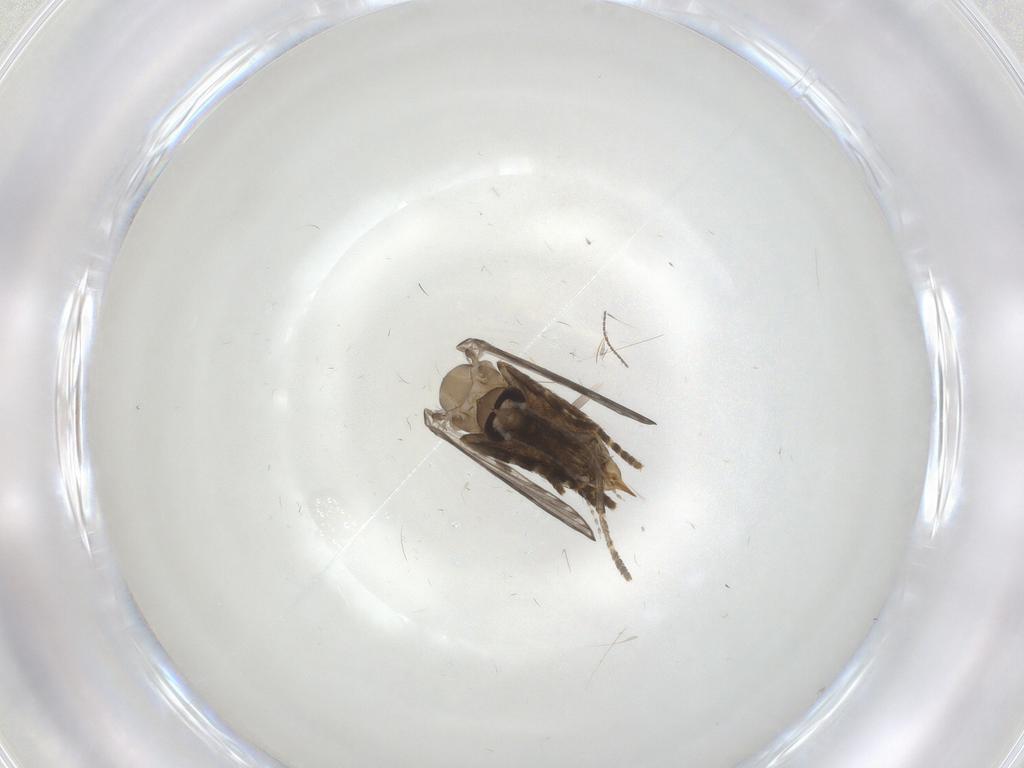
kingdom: Animalia
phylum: Arthropoda
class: Insecta
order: Diptera
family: Psychodidae
